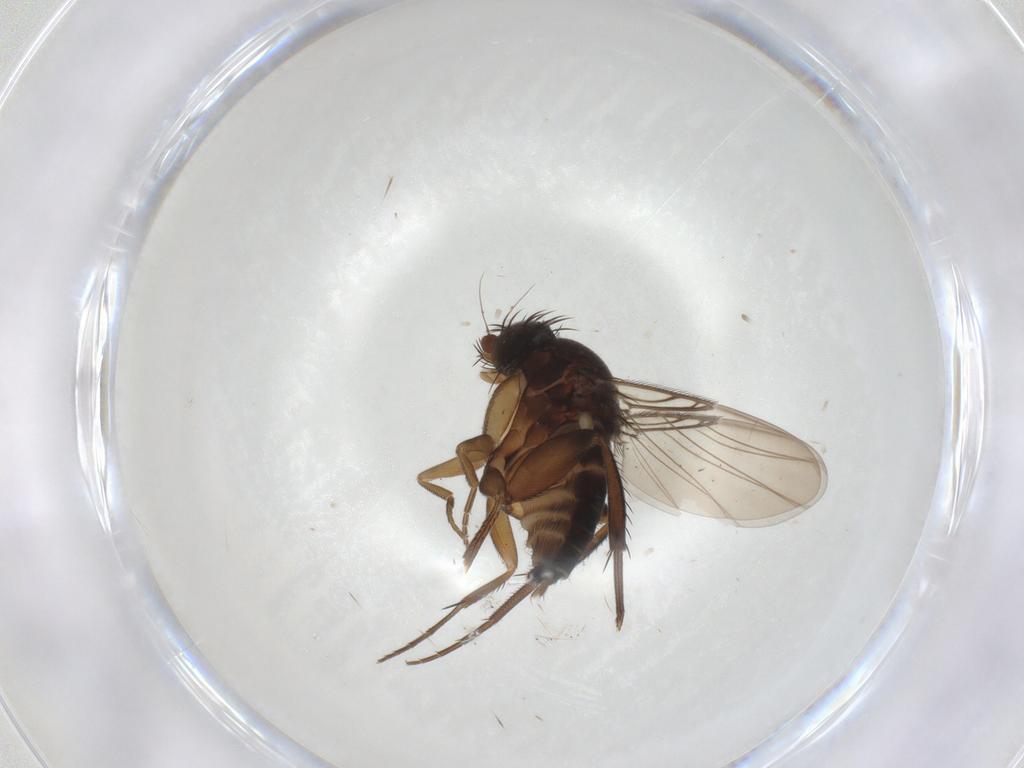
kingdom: Animalia
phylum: Arthropoda
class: Insecta
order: Diptera
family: Phoridae
